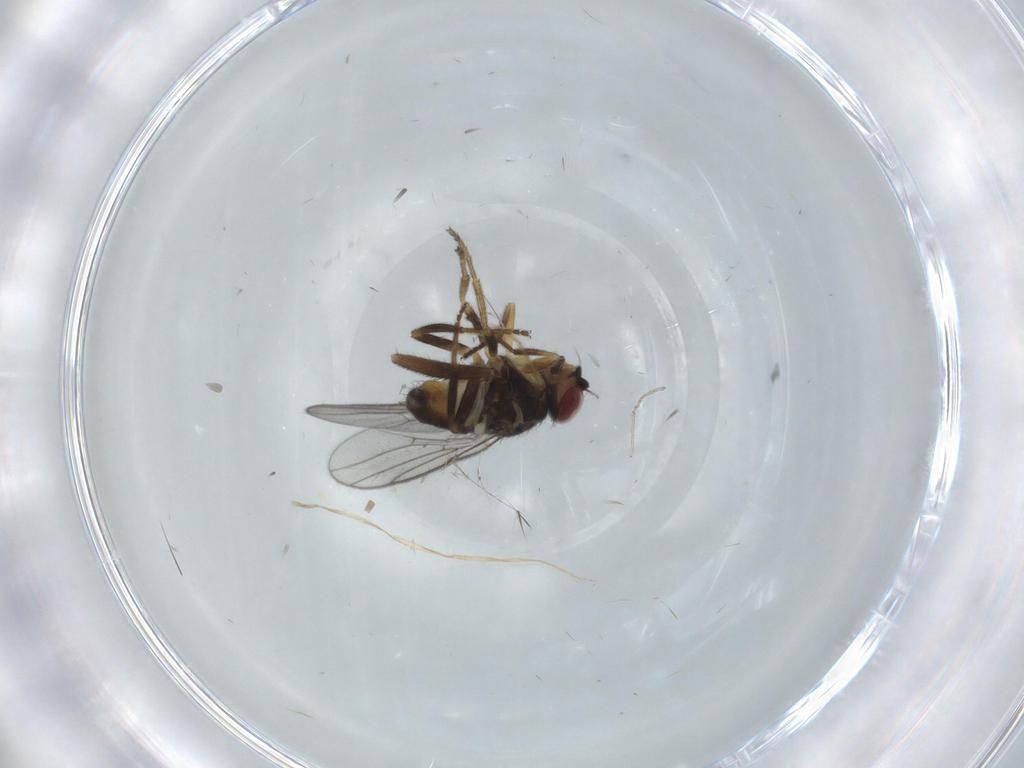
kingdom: Animalia
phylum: Arthropoda
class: Insecta
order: Diptera
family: Chloropidae
